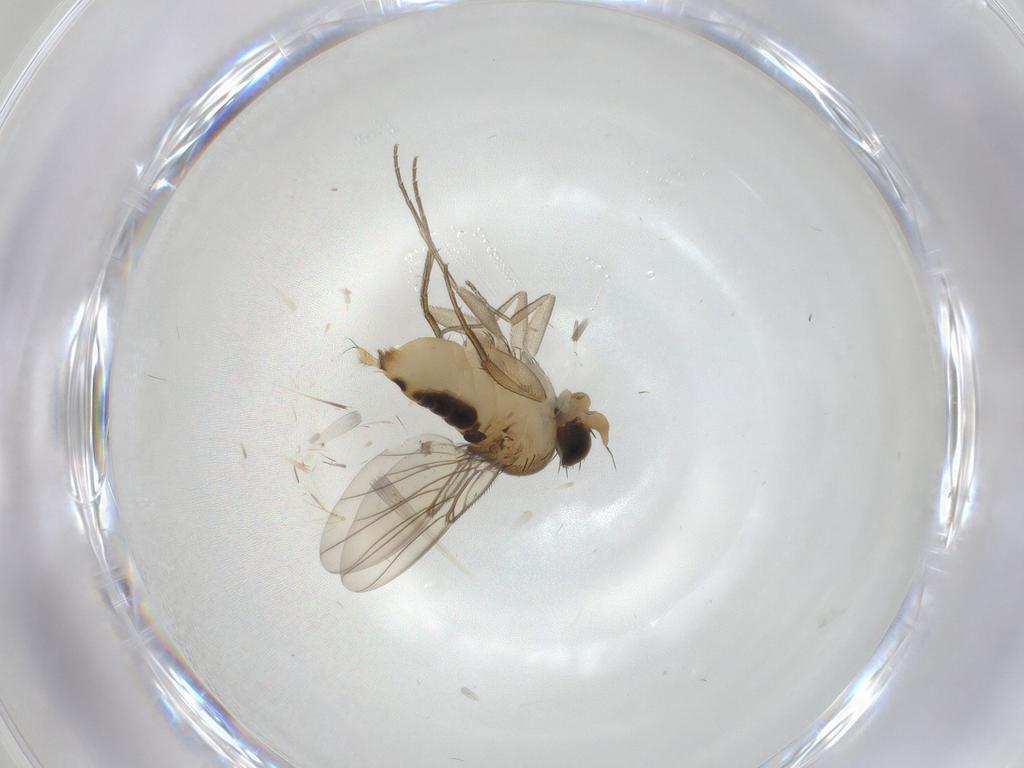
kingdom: Animalia
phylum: Arthropoda
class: Insecta
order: Diptera
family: Phoridae
